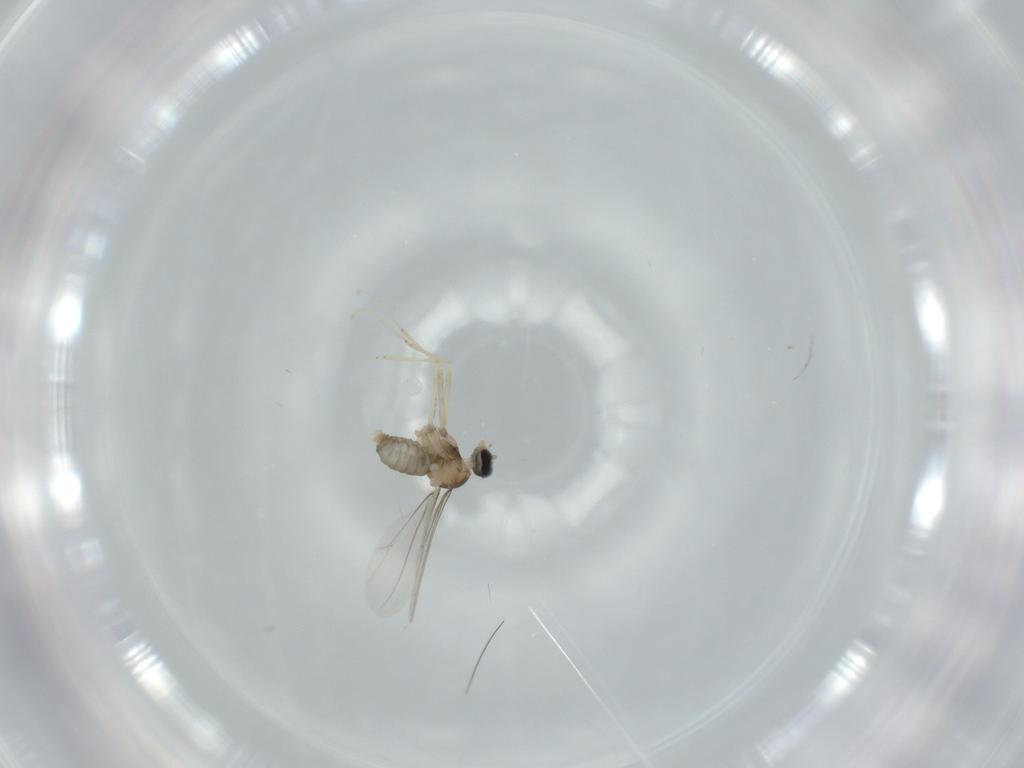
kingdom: Animalia
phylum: Arthropoda
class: Insecta
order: Diptera
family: Cecidomyiidae
